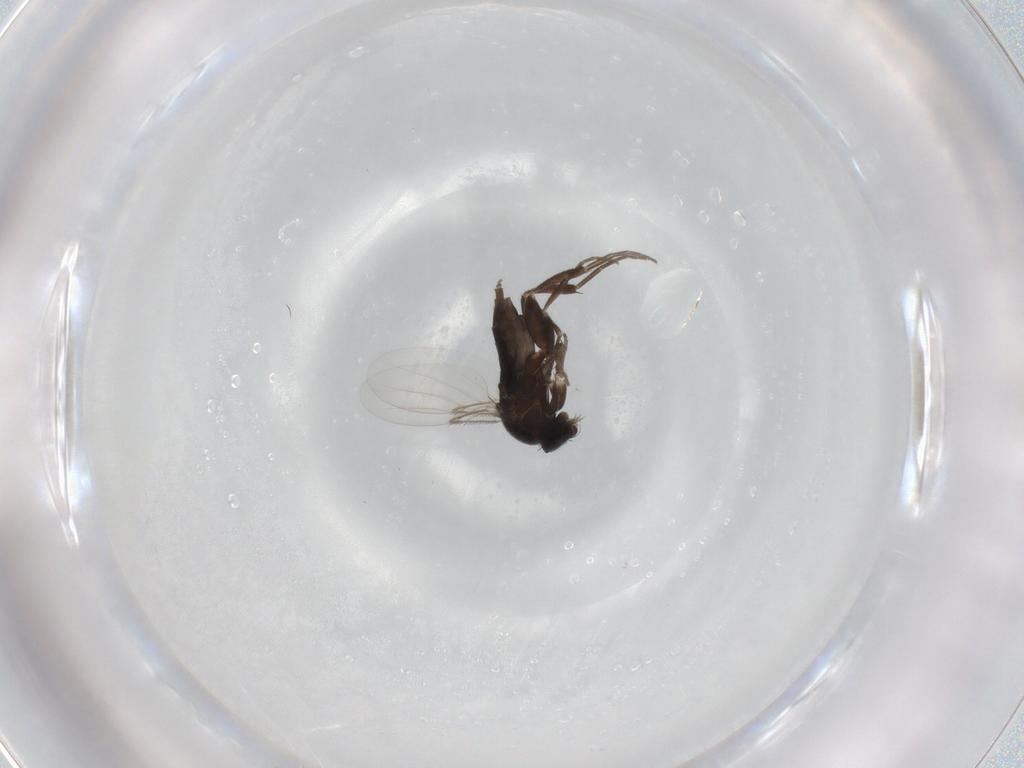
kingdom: Animalia
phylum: Arthropoda
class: Insecta
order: Diptera
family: Phoridae
